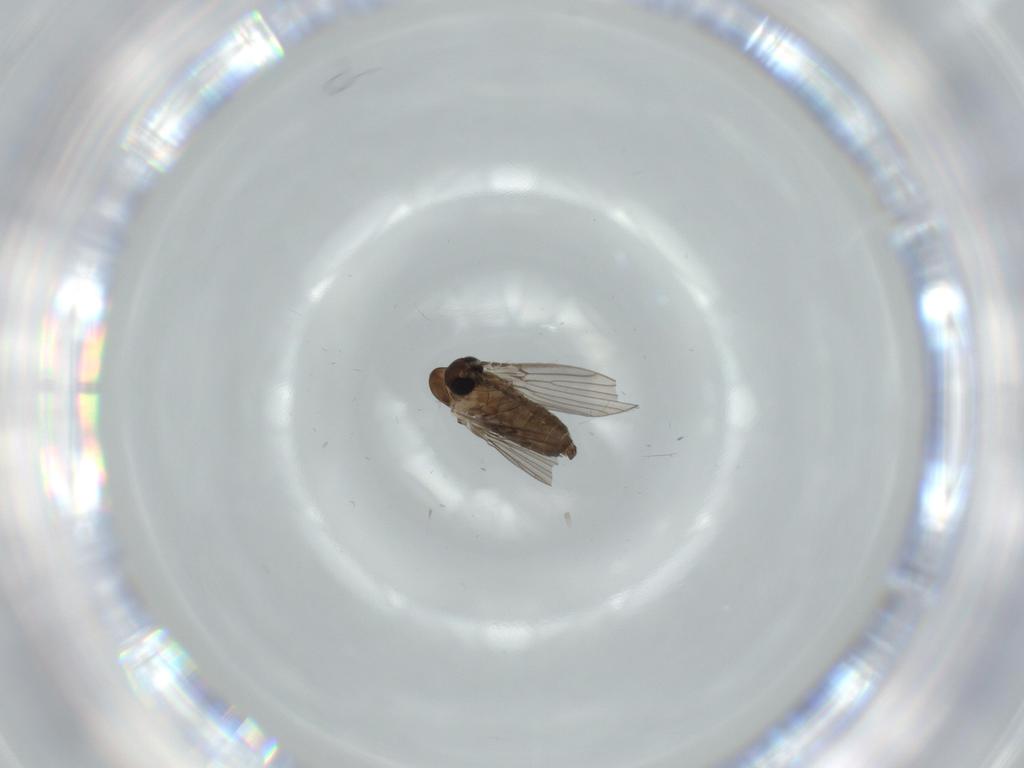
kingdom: Animalia
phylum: Arthropoda
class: Insecta
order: Diptera
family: Psychodidae
